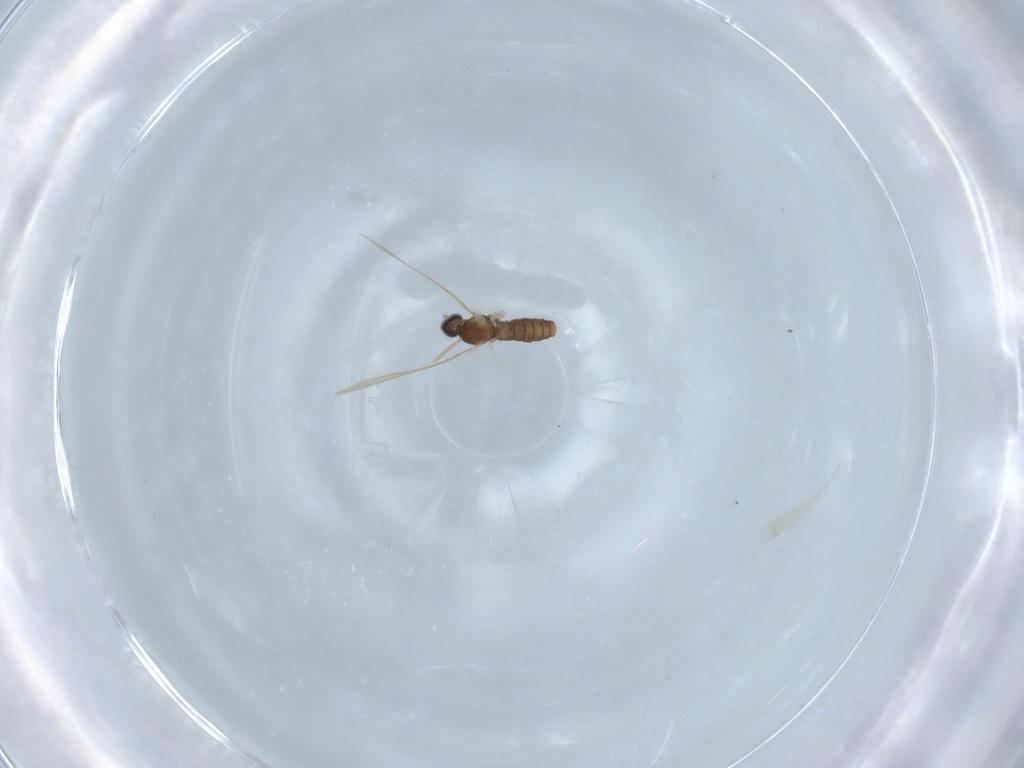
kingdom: Animalia
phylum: Arthropoda
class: Insecta
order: Diptera
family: Cecidomyiidae
